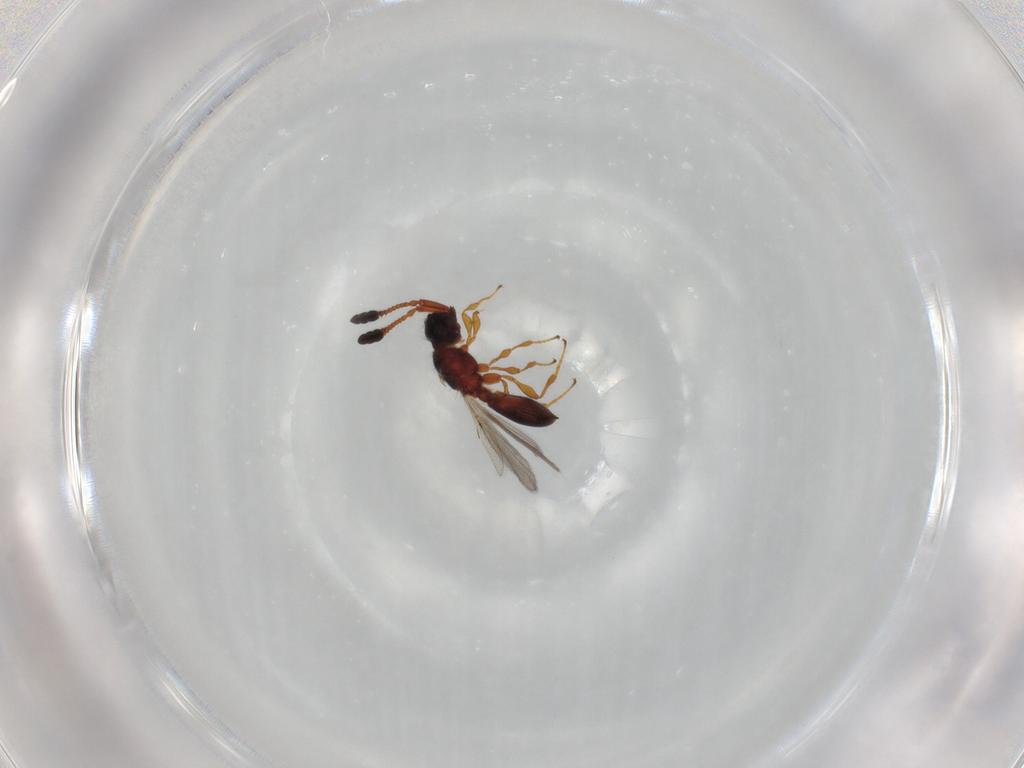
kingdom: Animalia
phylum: Arthropoda
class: Insecta
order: Hymenoptera
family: Diapriidae
